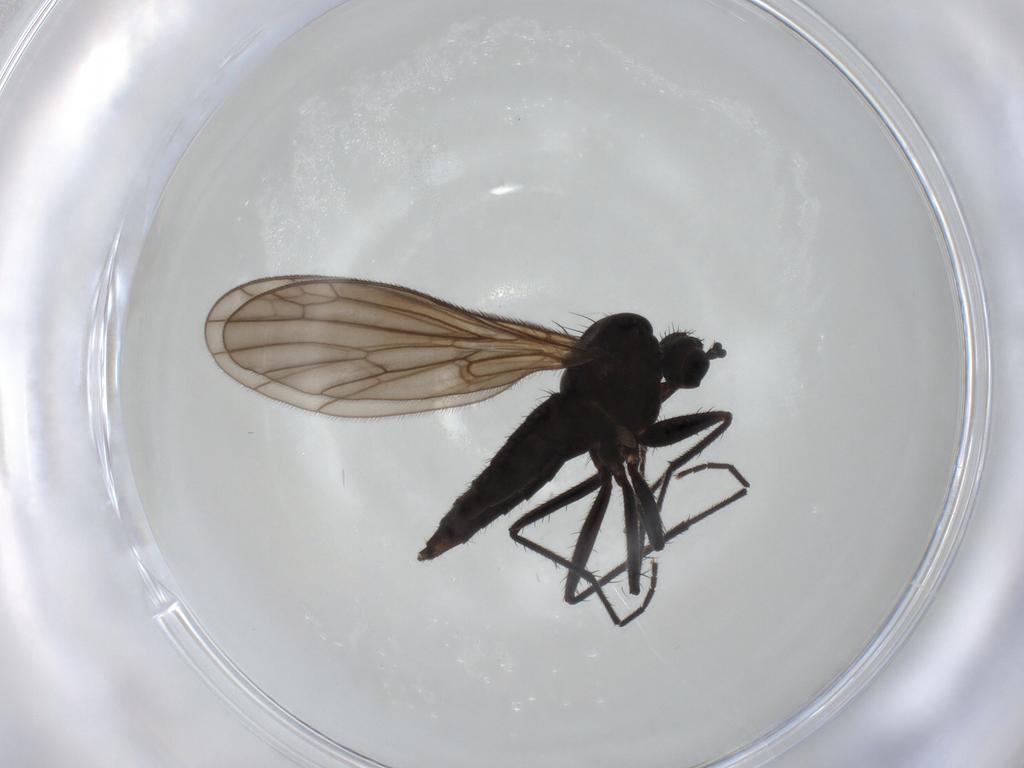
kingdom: Animalia
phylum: Arthropoda
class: Insecta
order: Diptera
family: Empididae
